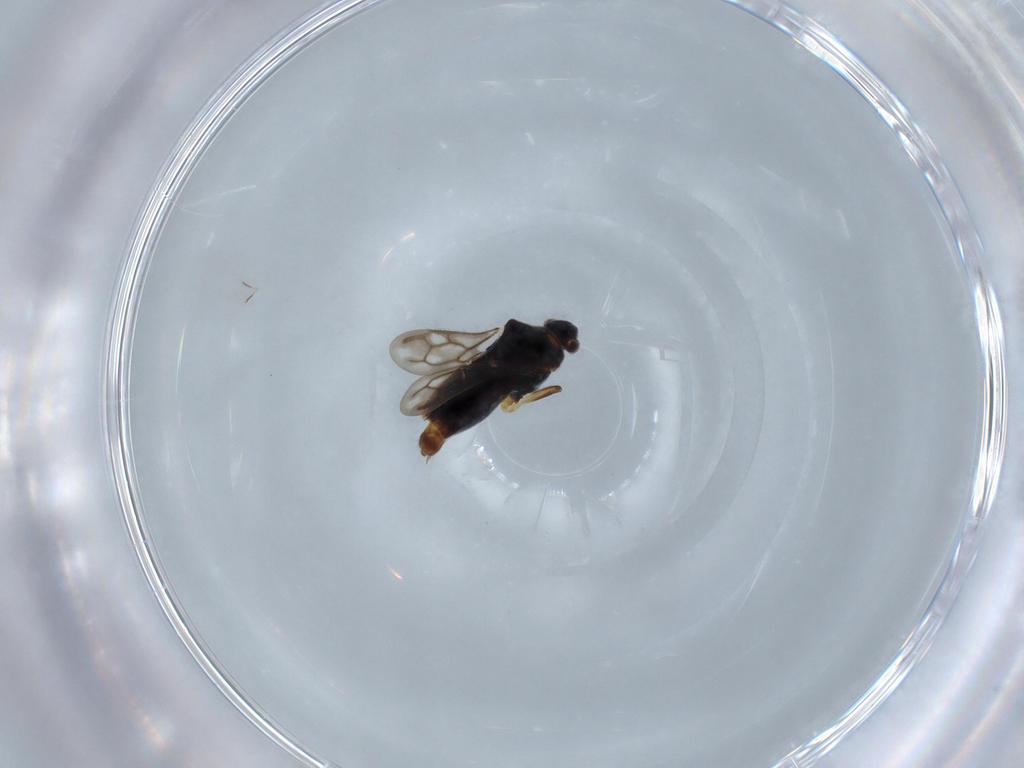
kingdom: Animalia
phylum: Arthropoda
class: Insecta
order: Hemiptera
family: Veliidae
